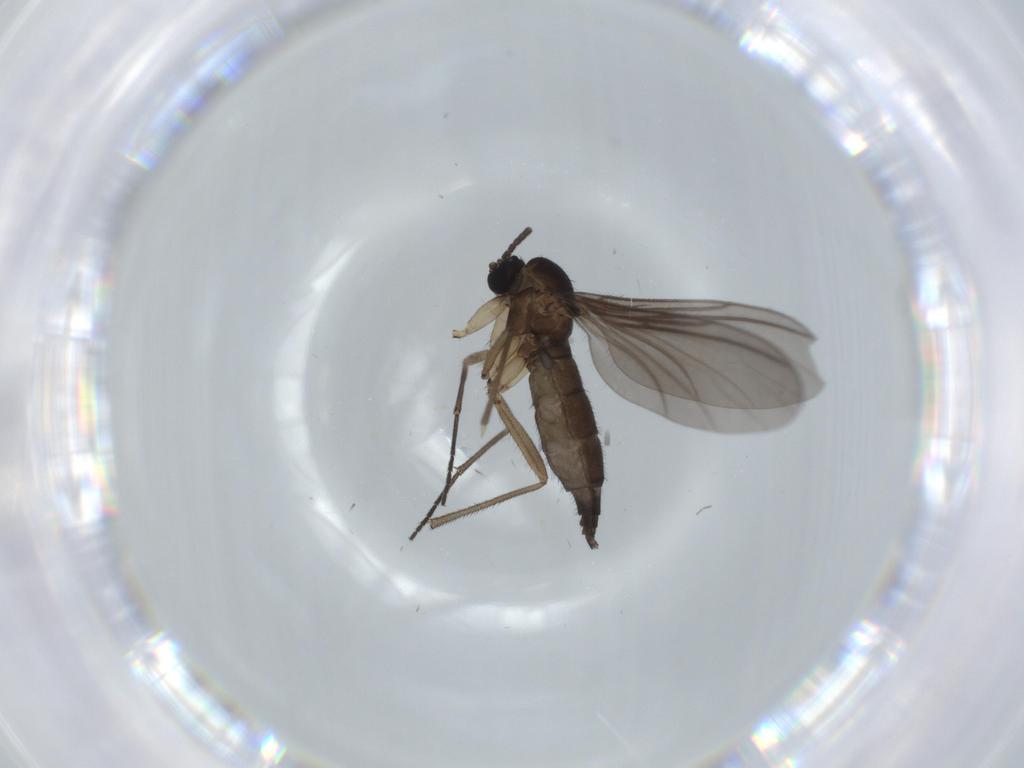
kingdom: Animalia
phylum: Arthropoda
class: Insecta
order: Diptera
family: Sciaridae
